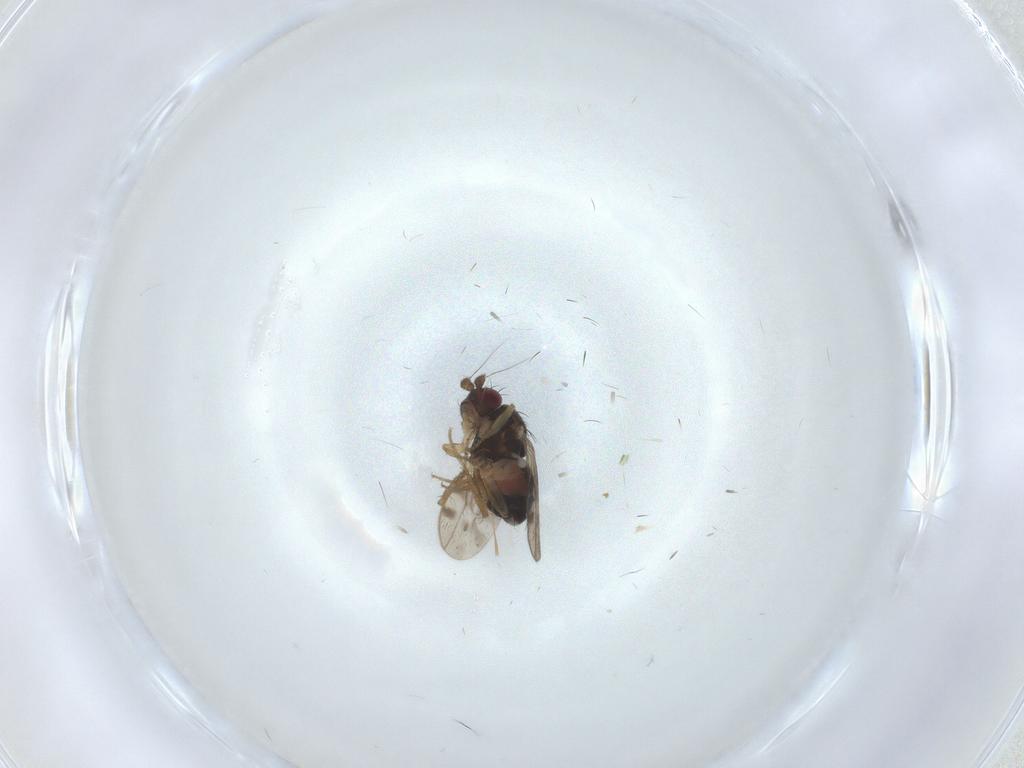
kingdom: Animalia
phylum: Arthropoda
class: Insecta
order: Diptera
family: Sphaeroceridae
